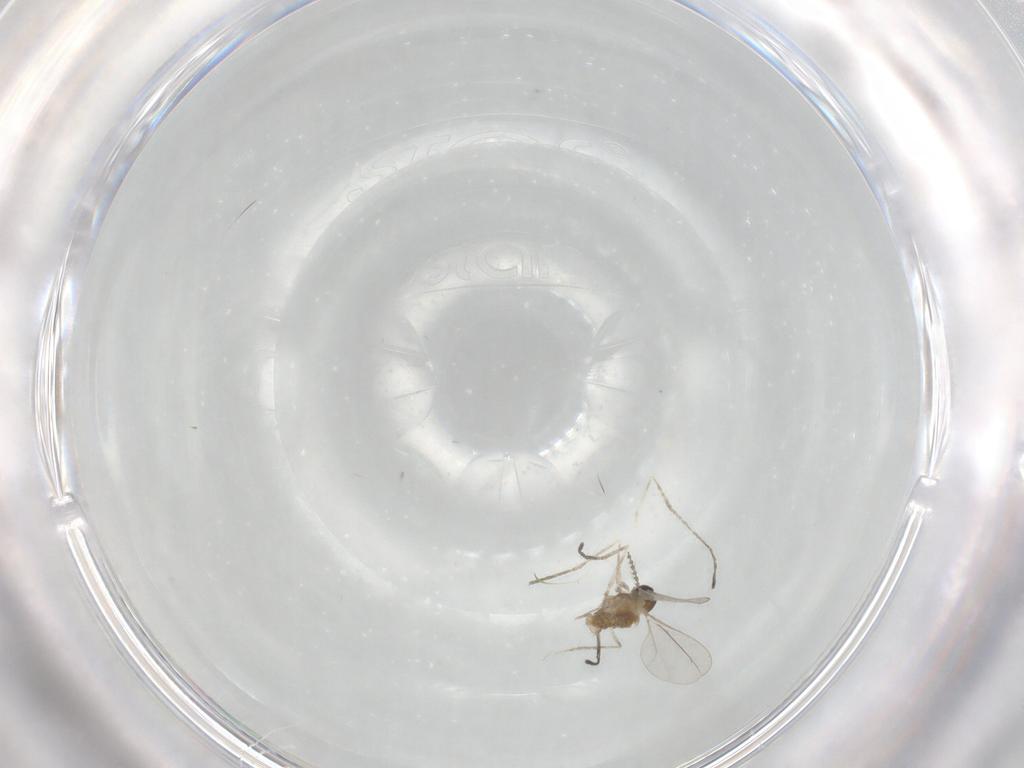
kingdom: Animalia
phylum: Arthropoda
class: Insecta
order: Diptera
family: Cecidomyiidae
